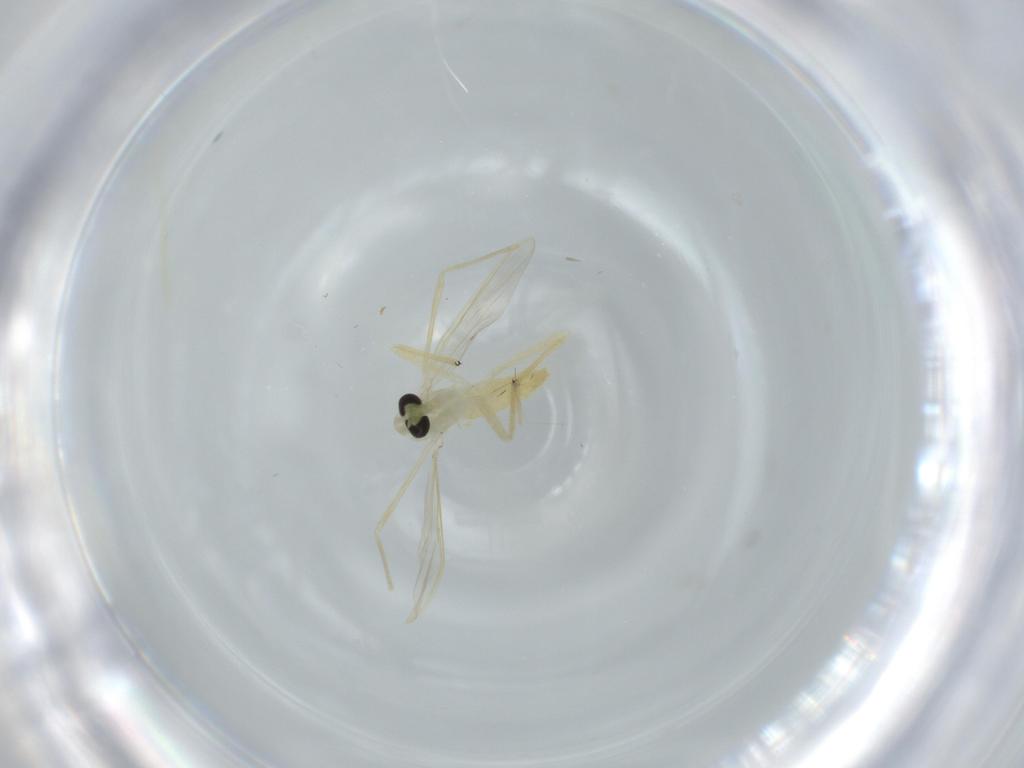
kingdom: Animalia
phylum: Arthropoda
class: Insecta
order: Diptera
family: Chironomidae
